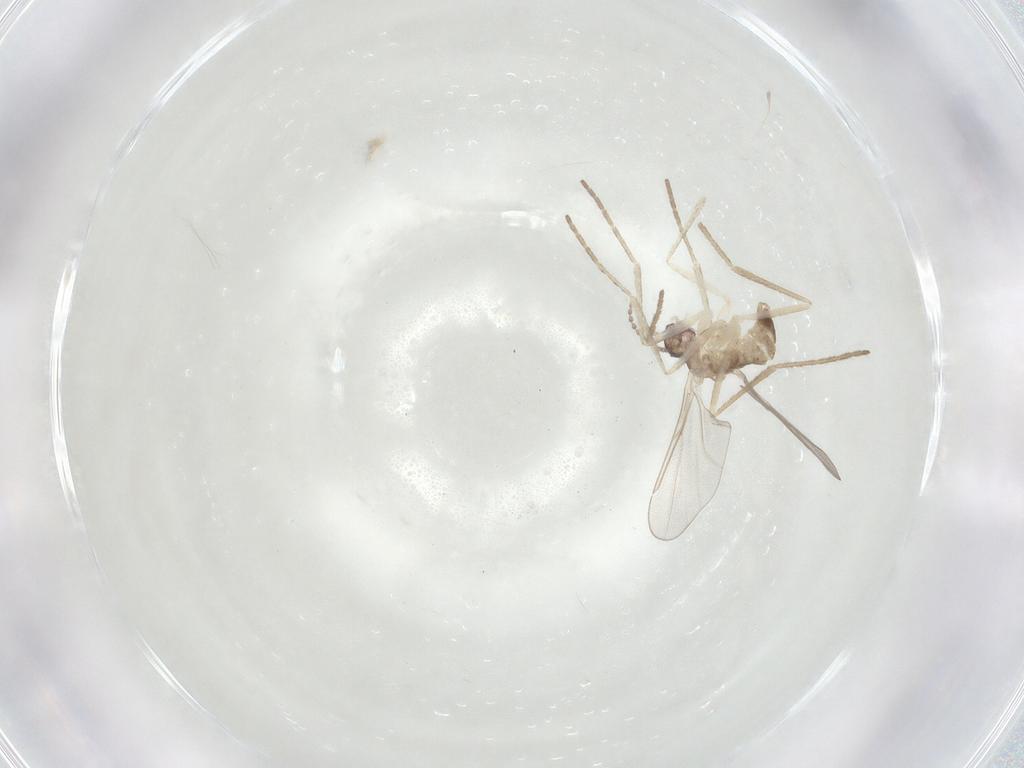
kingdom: Animalia
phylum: Arthropoda
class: Insecta
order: Diptera
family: Cecidomyiidae
